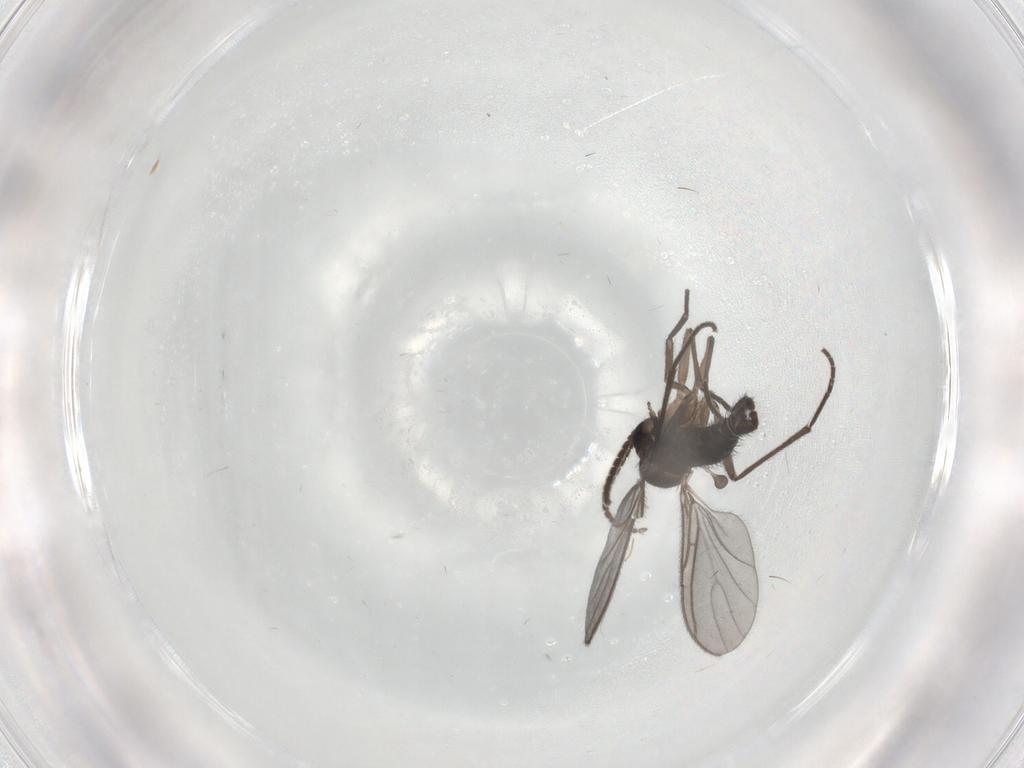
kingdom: Animalia
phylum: Arthropoda
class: Insecta
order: Diptera
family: Sciaridae
